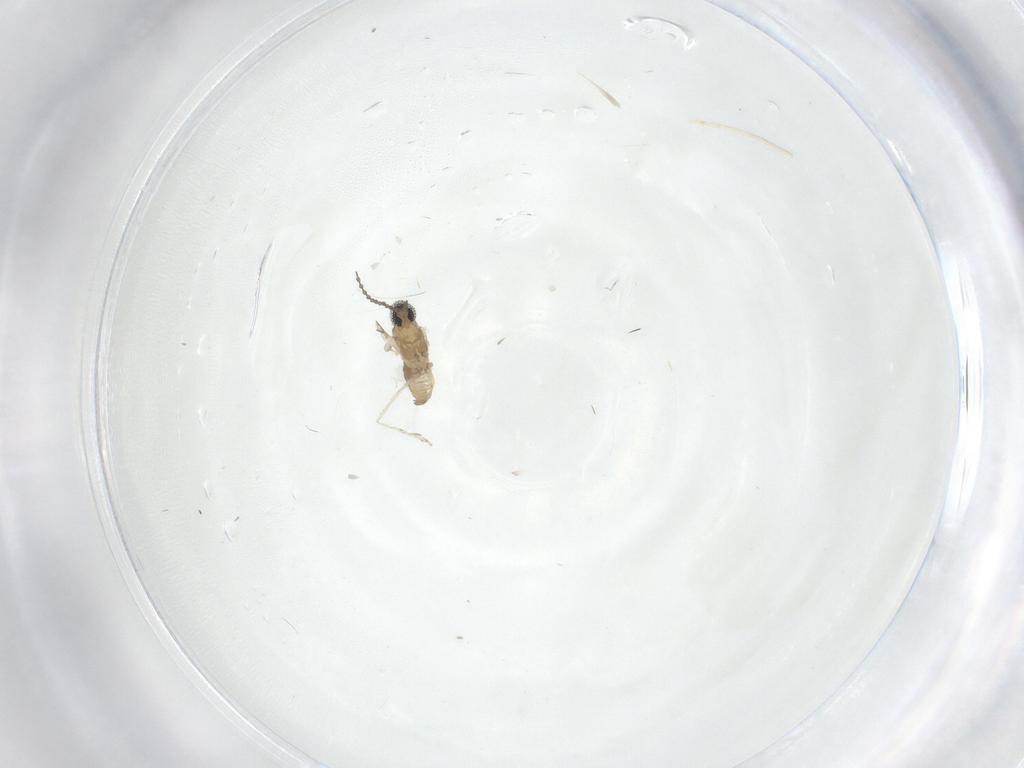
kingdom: Animalia
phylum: Arthropoda
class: Insecta
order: Diptera
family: Cecidomyiidae
